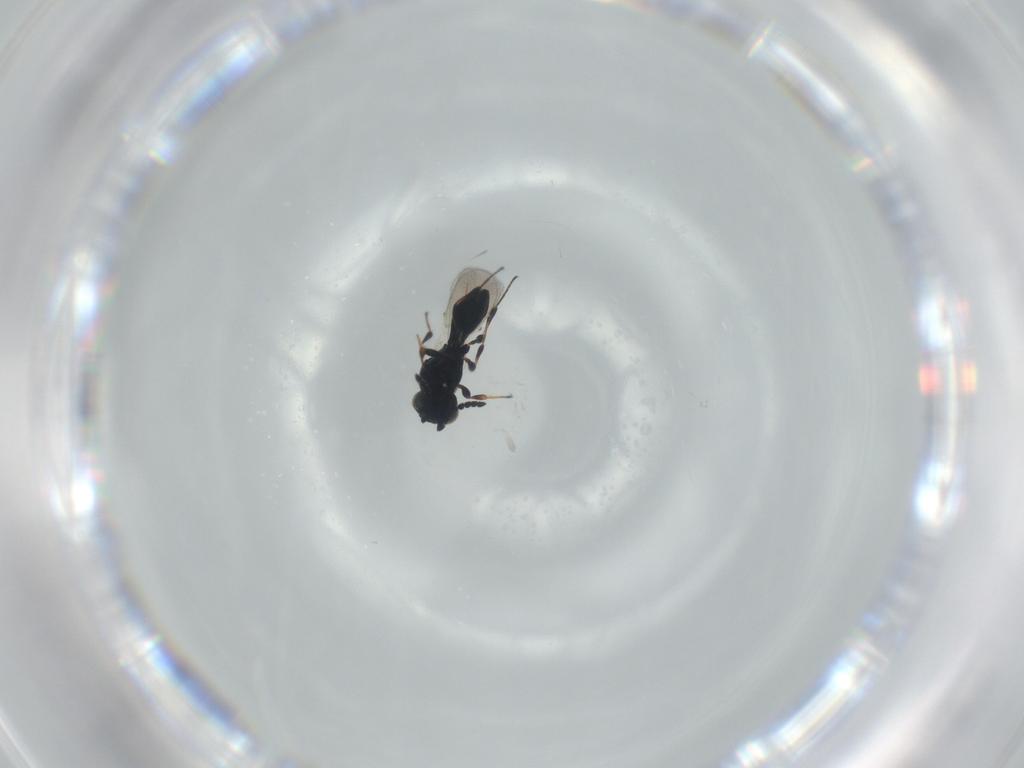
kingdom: Animalia
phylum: Arthropoda
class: Insecta
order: Hymenoptera
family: Platygastridae
